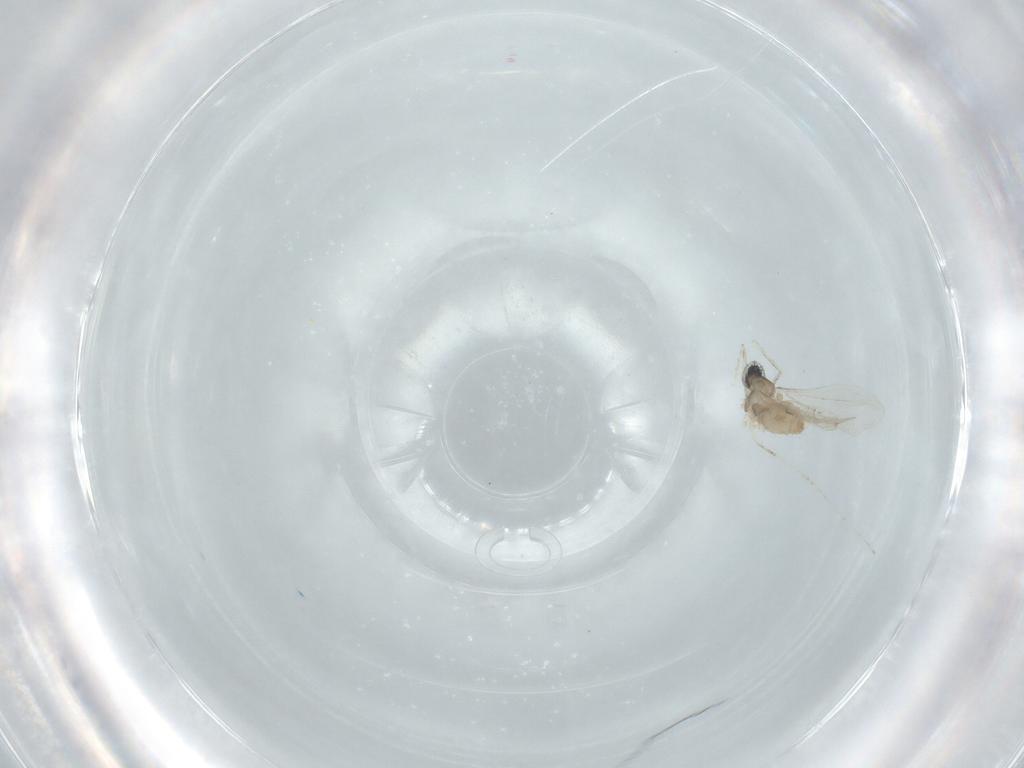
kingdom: Animalia
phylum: Arthropoda
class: Insecta
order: Diptera
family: Cecidomyiidae
